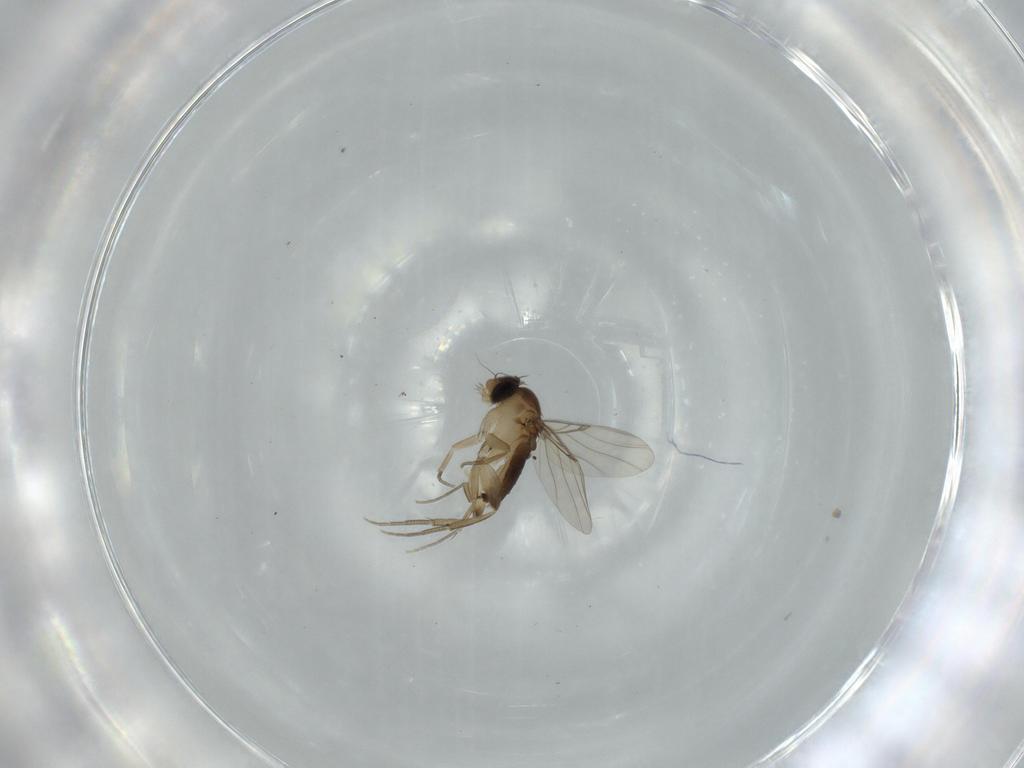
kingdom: Animalia
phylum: Arthropoda
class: Insecta
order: Diptera
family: Phoridae
